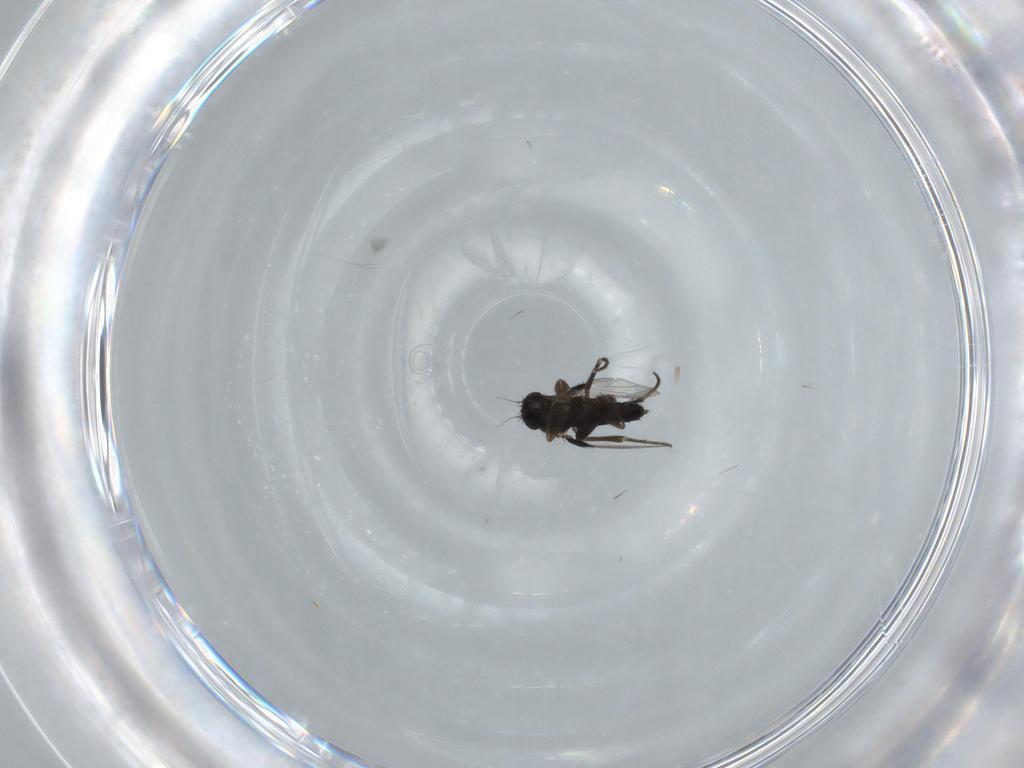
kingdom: Animalia
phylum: Arthropoda
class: Insecta
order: Diptera
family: Phoridae
